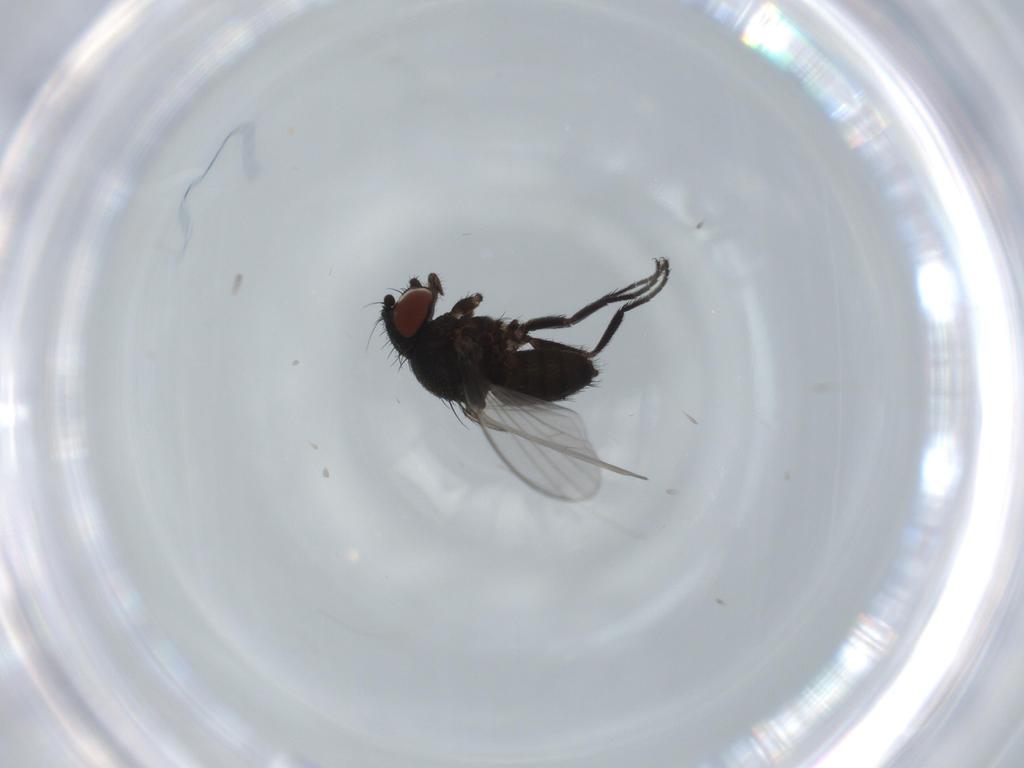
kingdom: Animalia
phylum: Arthropoda
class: Insecta
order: Diptera
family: Milichiidae
